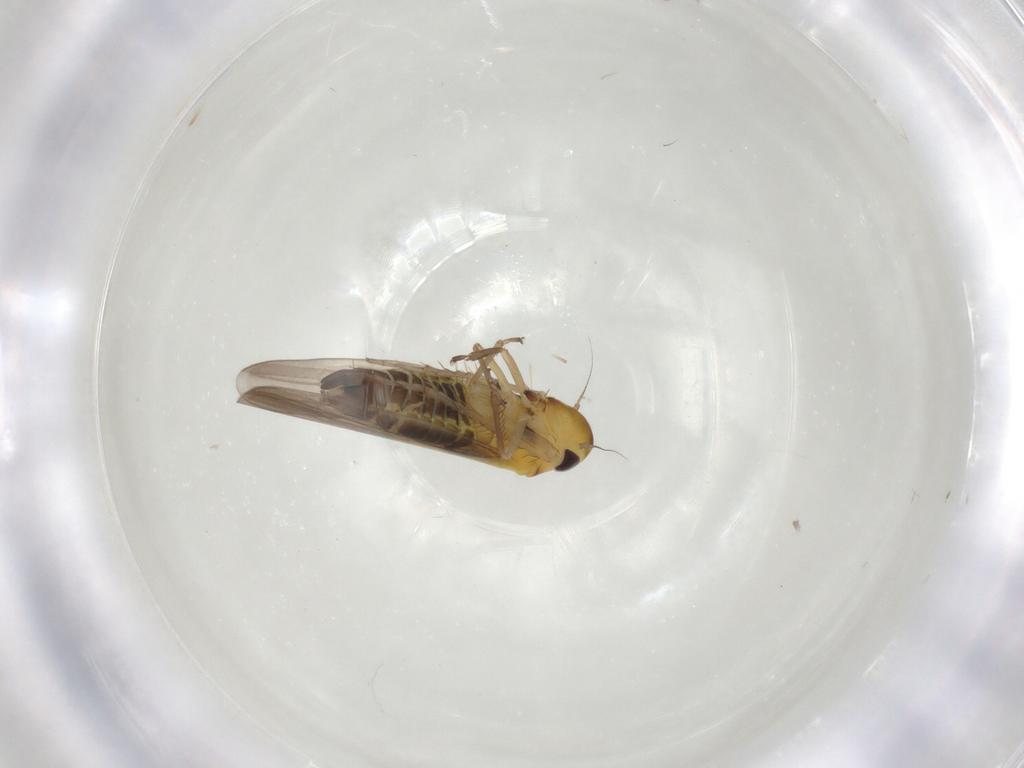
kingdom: Animalia
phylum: Arthropoda
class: Insecta
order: Hemiptera
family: Cicadellidae
